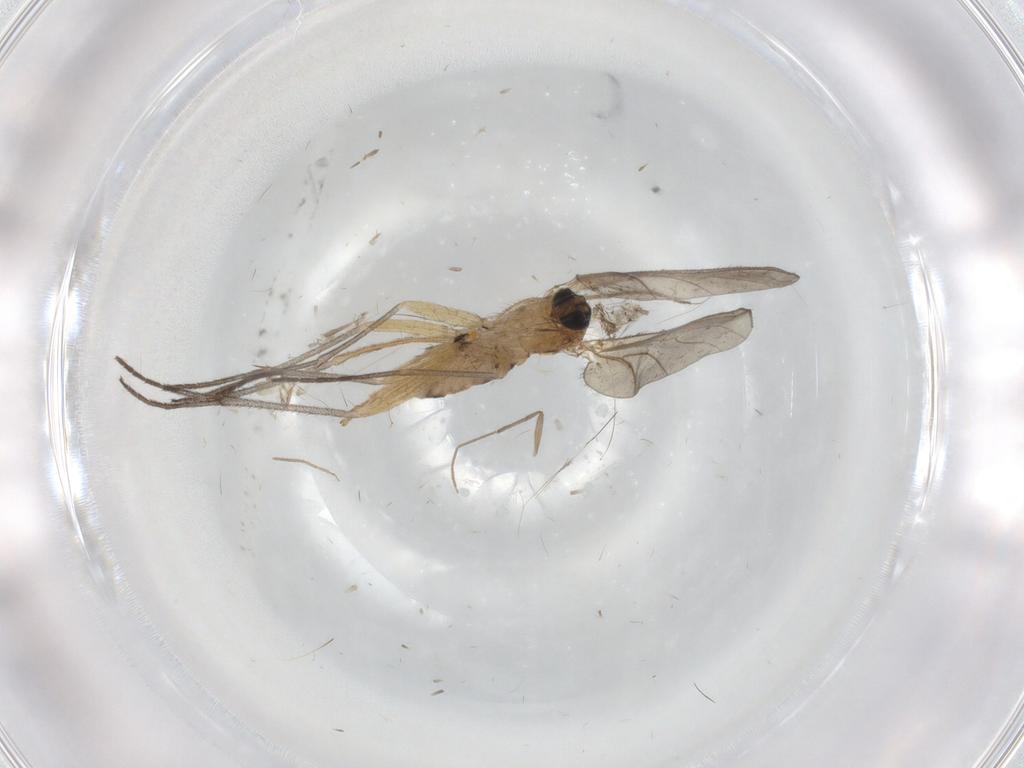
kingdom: Animalia
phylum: Arthropoda
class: Insecta
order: Diptera
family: Sciaridae
